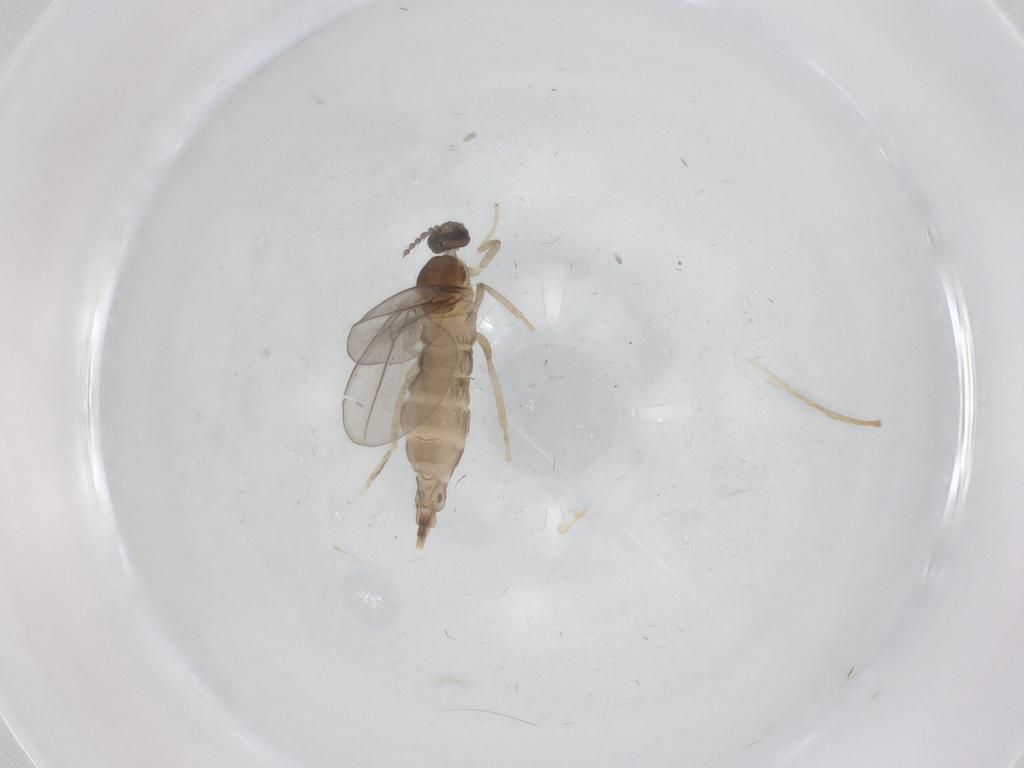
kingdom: Animalia
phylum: Arthropoda
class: Insecta
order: Diptera
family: Cecidomyiidae
